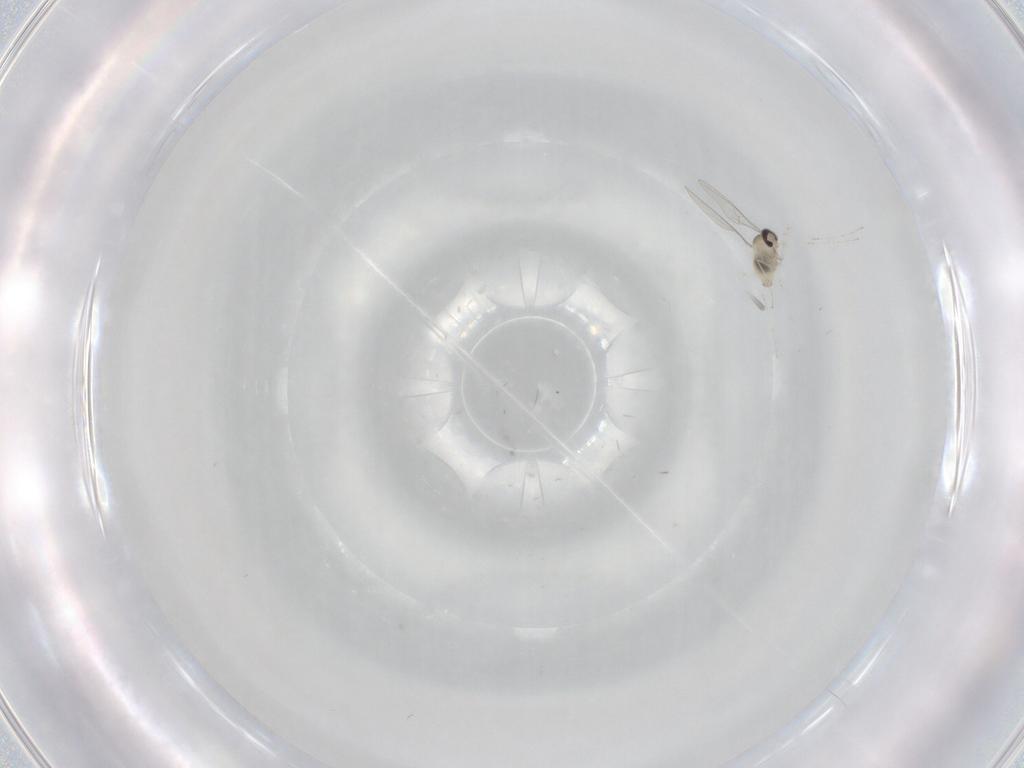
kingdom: Animalia
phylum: Arthropoda
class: Insecta
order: Diptera
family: Cecidomyiidae
